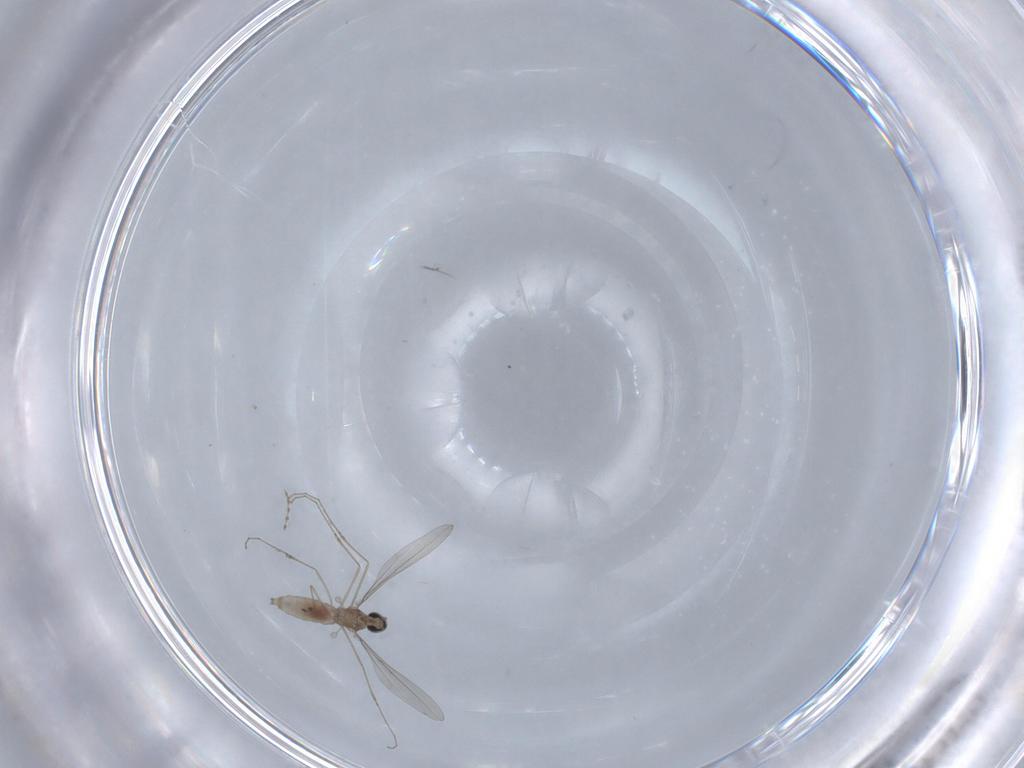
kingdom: Animalia
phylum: Arthropoda
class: Insecta
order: Diptera
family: Cecidomyiidae
